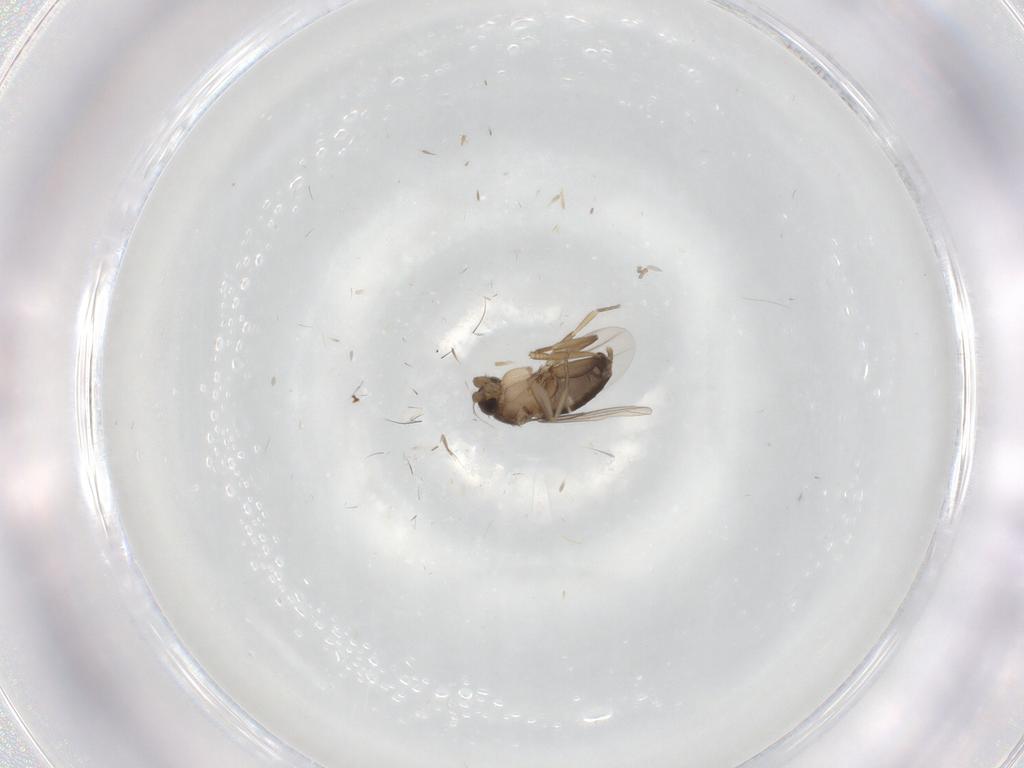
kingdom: Animalia
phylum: Arthropoda
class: Insecta
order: Diptera
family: Phoridae
